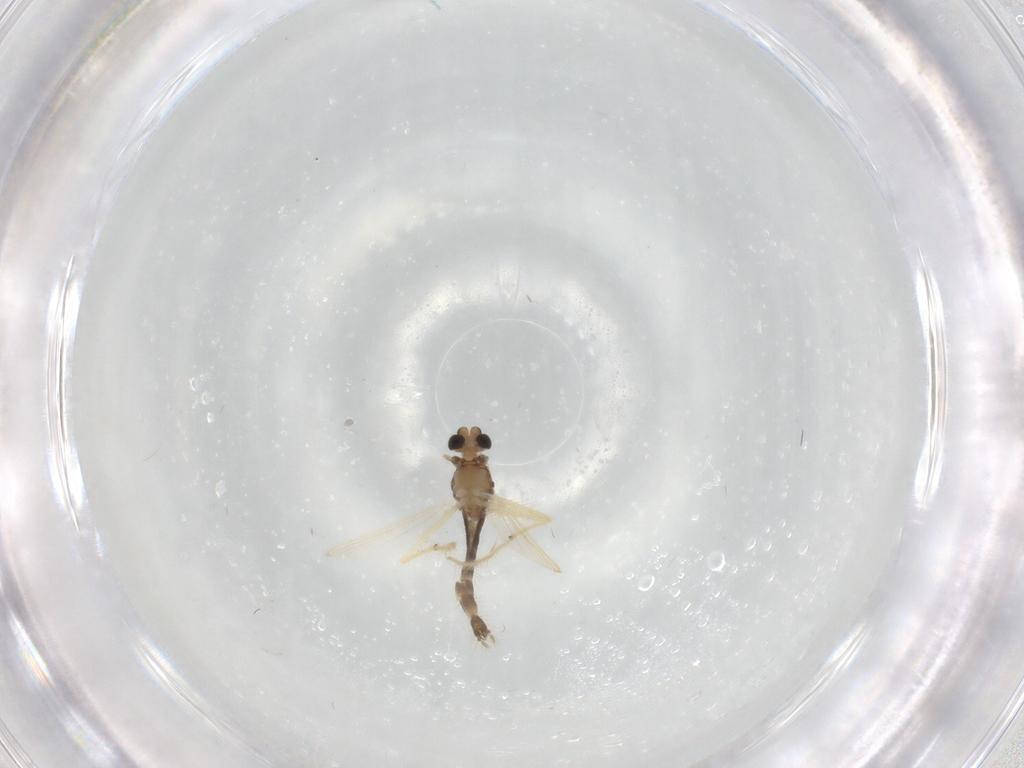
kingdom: Animalia
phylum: Arthropoda
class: Insecta
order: Diptera
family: Chironomidae
